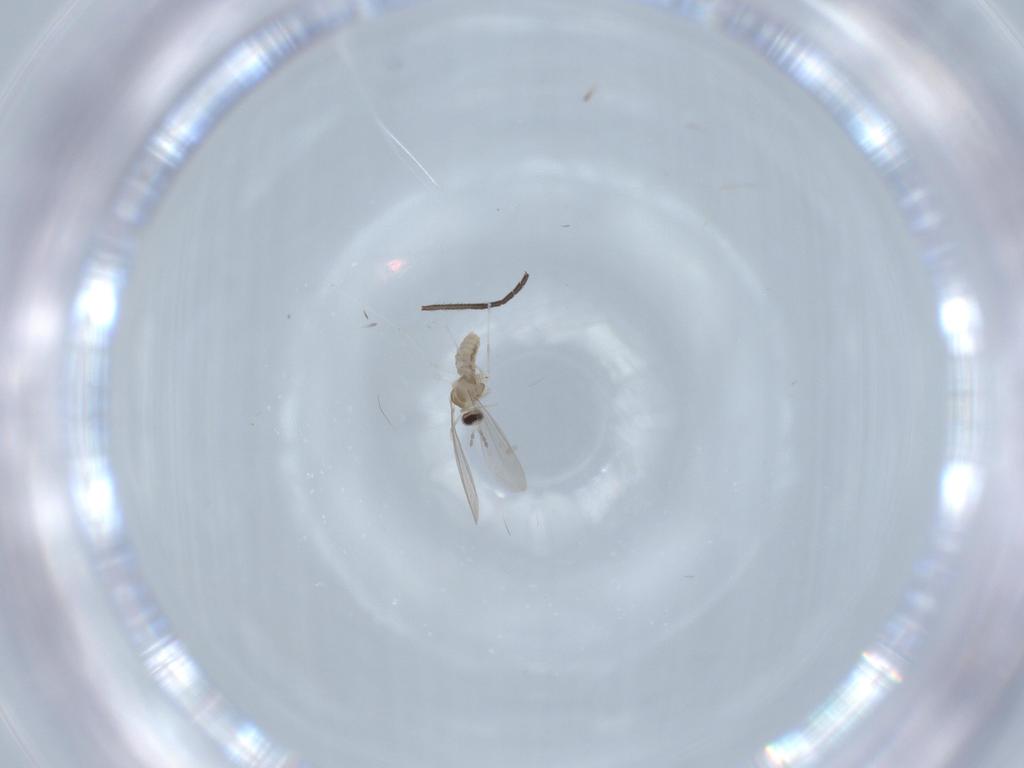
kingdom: Animalia
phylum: Arthropoda
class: Insecta
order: Diptera
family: Cecidomyiidae
